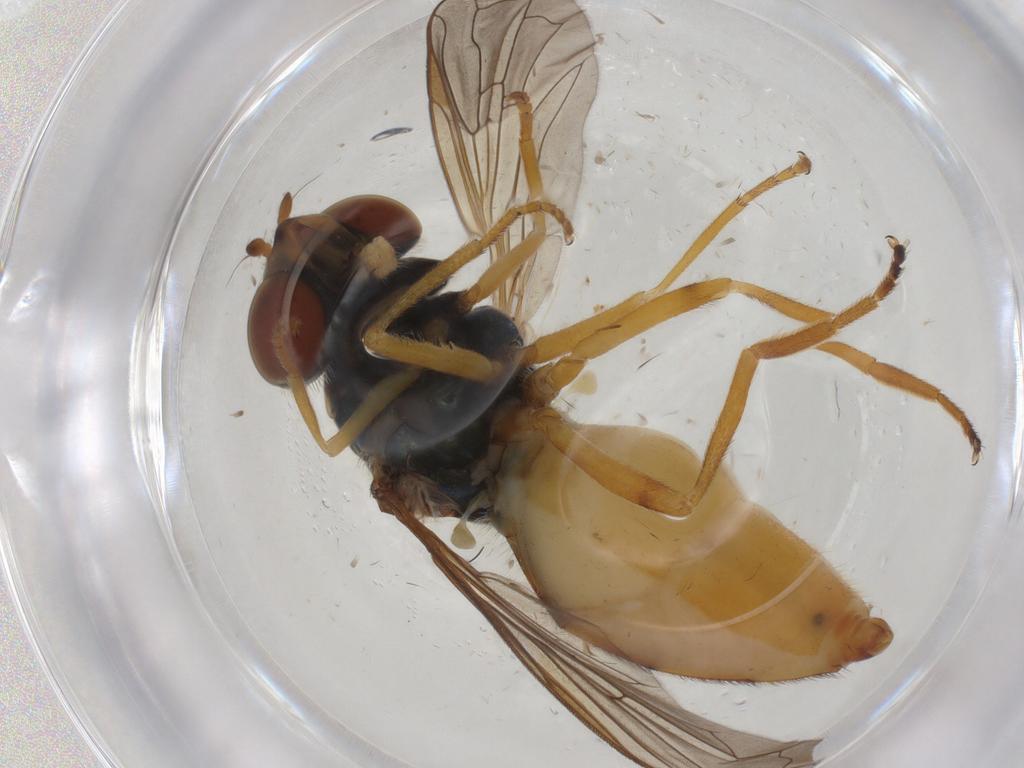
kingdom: Animalia
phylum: Arthropoda
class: Insecta
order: Diptera
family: Syrphidae
